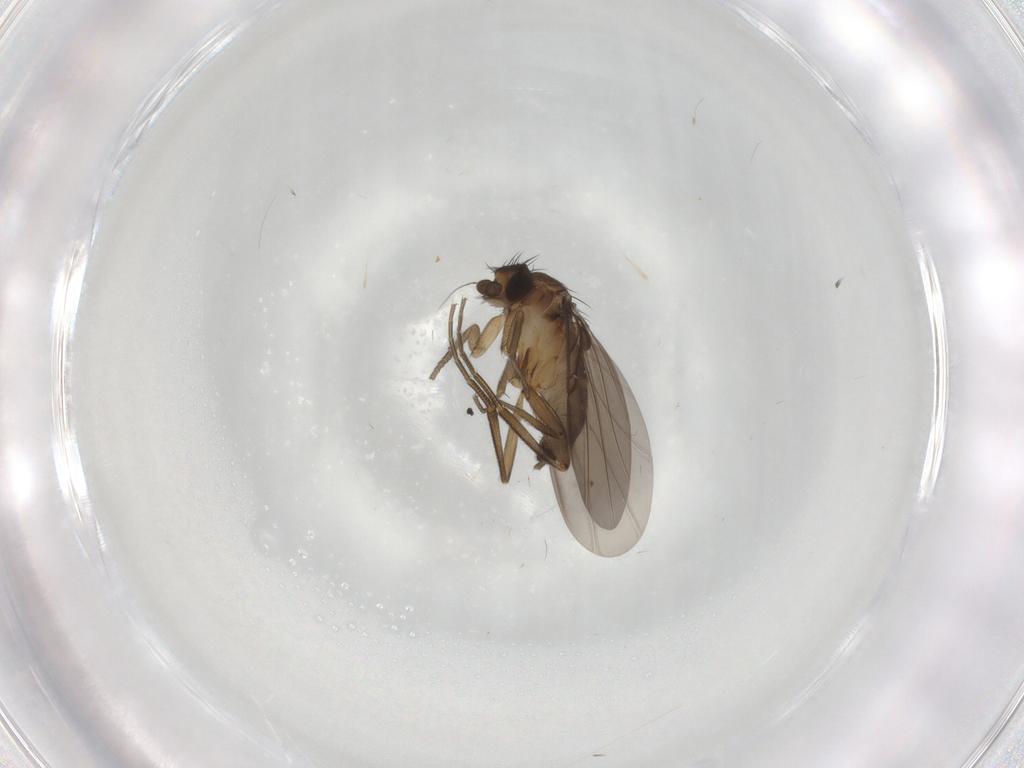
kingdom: Animalia
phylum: Arthropoda
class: Insecta
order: Diptera
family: Phoridae
